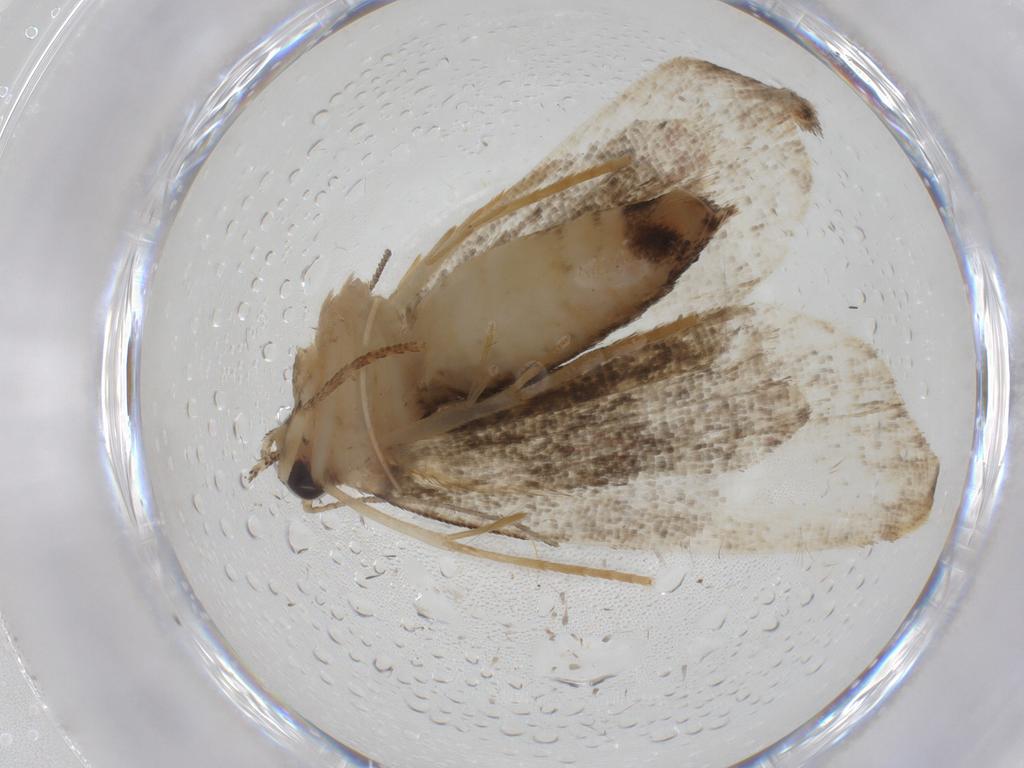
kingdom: Animalia
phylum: Arthropoda
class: Insecta
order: Lepidoptera
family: Erebidae
